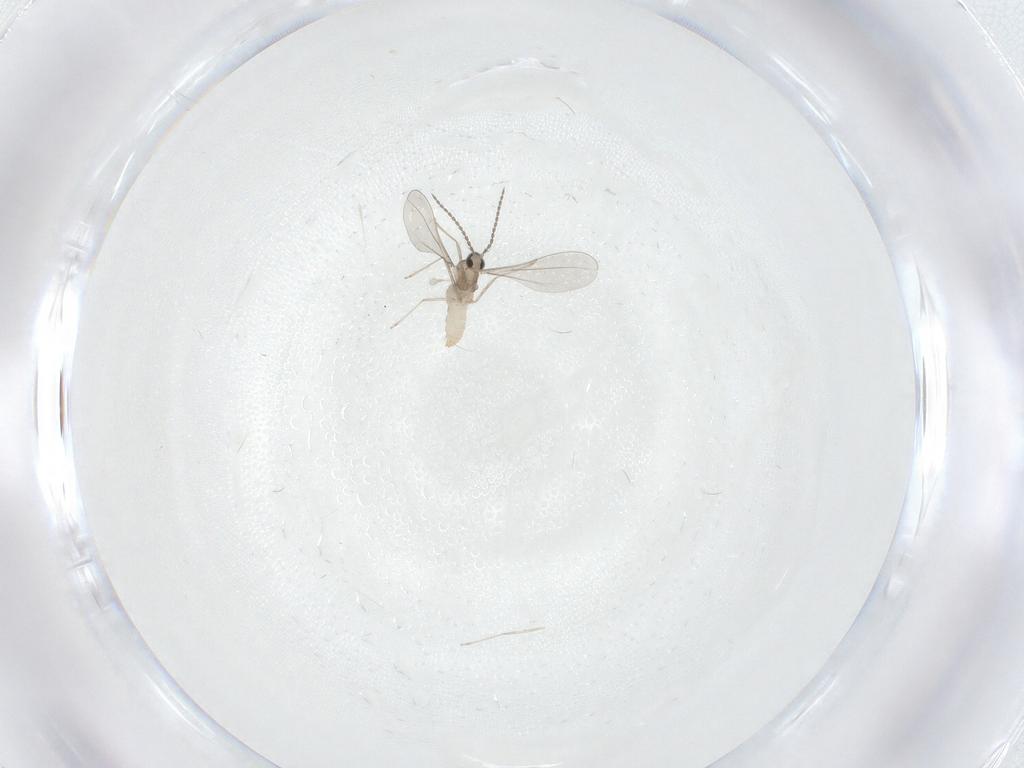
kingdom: Animalia
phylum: Arthropoda
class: Insecta
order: Diptera
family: Cecidomyiidae
